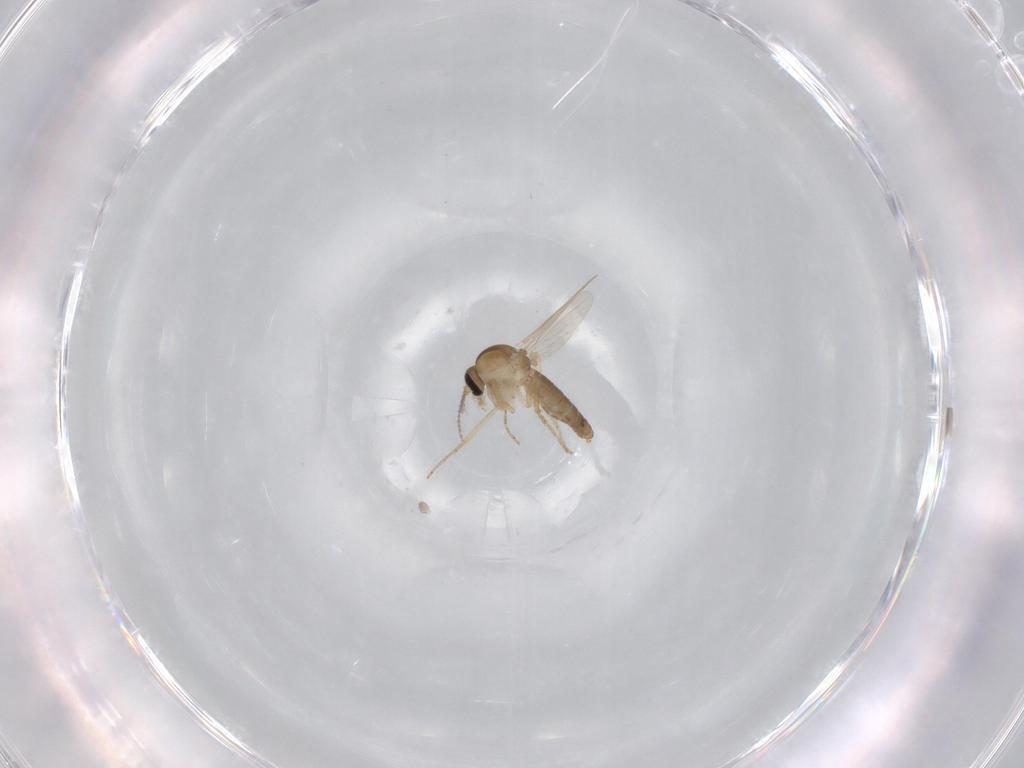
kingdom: Animalia
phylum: Arthropoda
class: Insecta
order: Diptera
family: Ceratopogonidae
